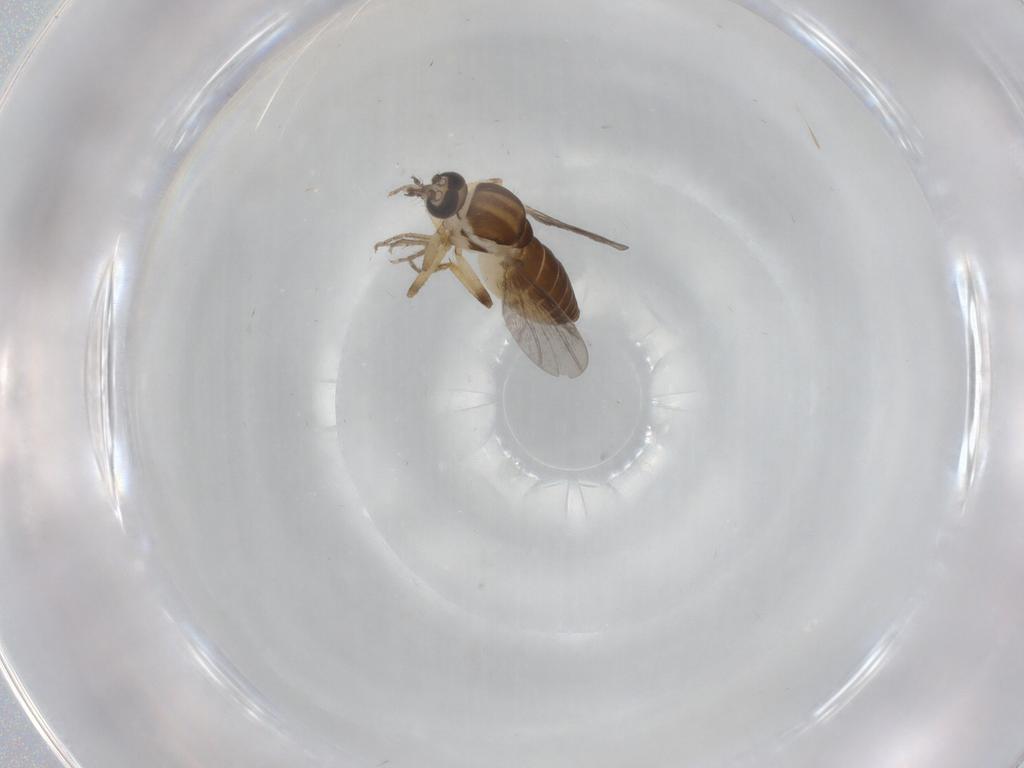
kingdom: Animalia
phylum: Arthropoda
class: Insecta
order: Diptera
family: Ceratopogonidae
